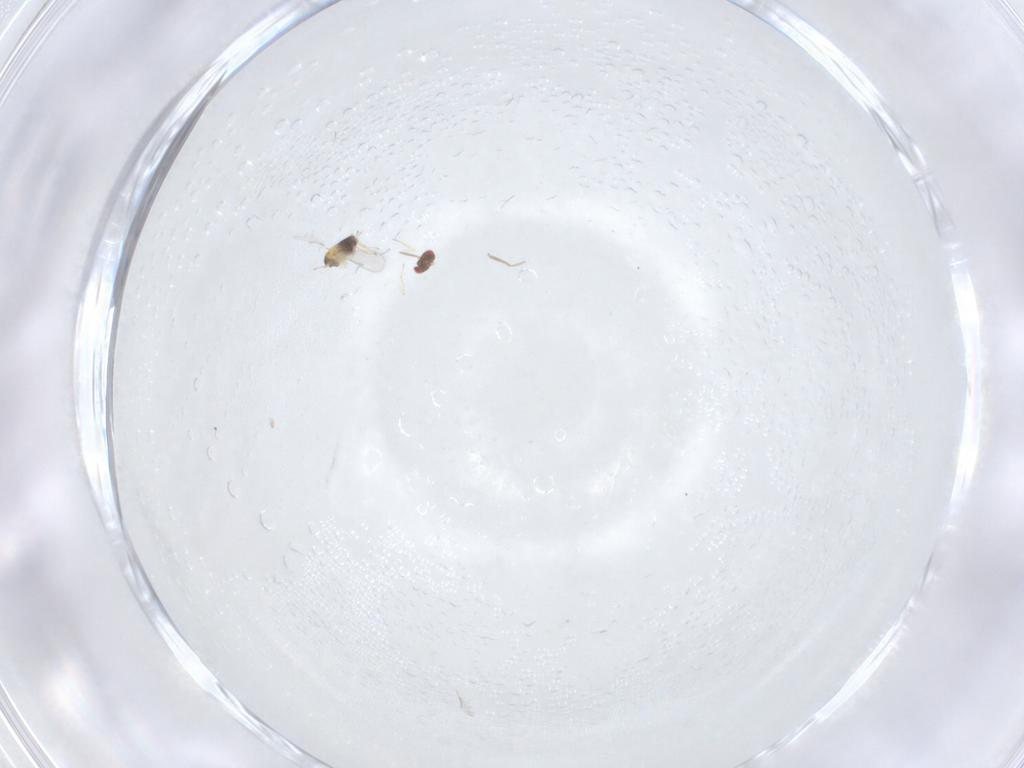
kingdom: Animalia
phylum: Arthropoda
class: Insecta
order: Hymenoptera
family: Aphelinidae
